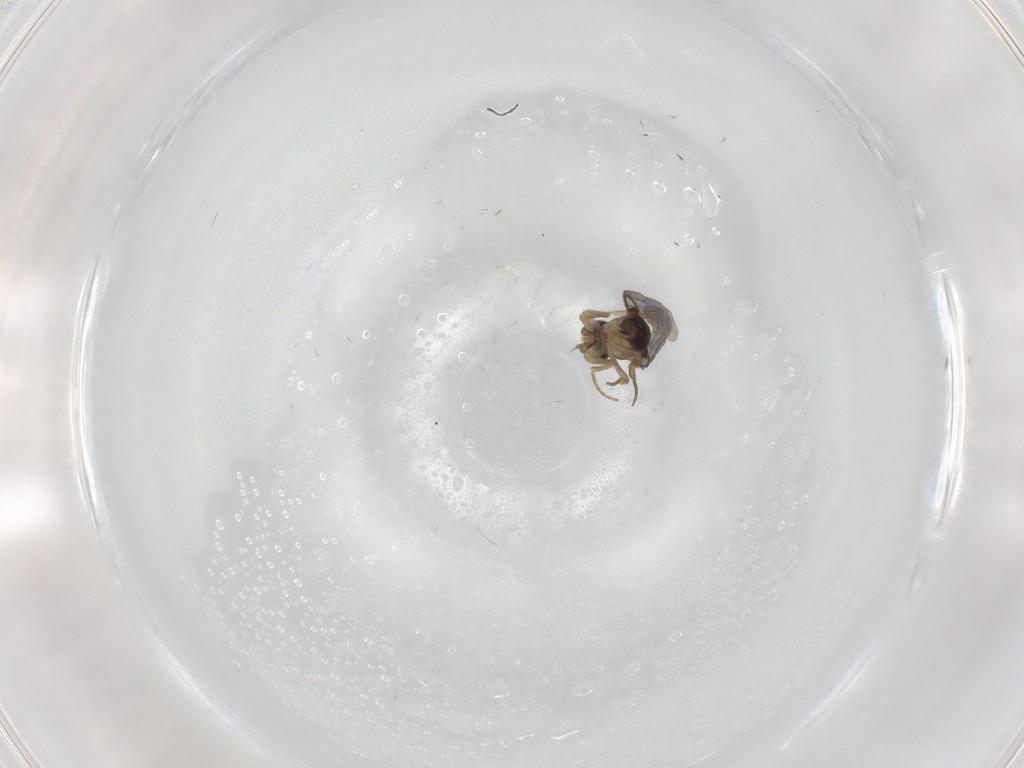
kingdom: Animalia
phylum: Arthropoda
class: Insecta
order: Diptera
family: Phoridae
